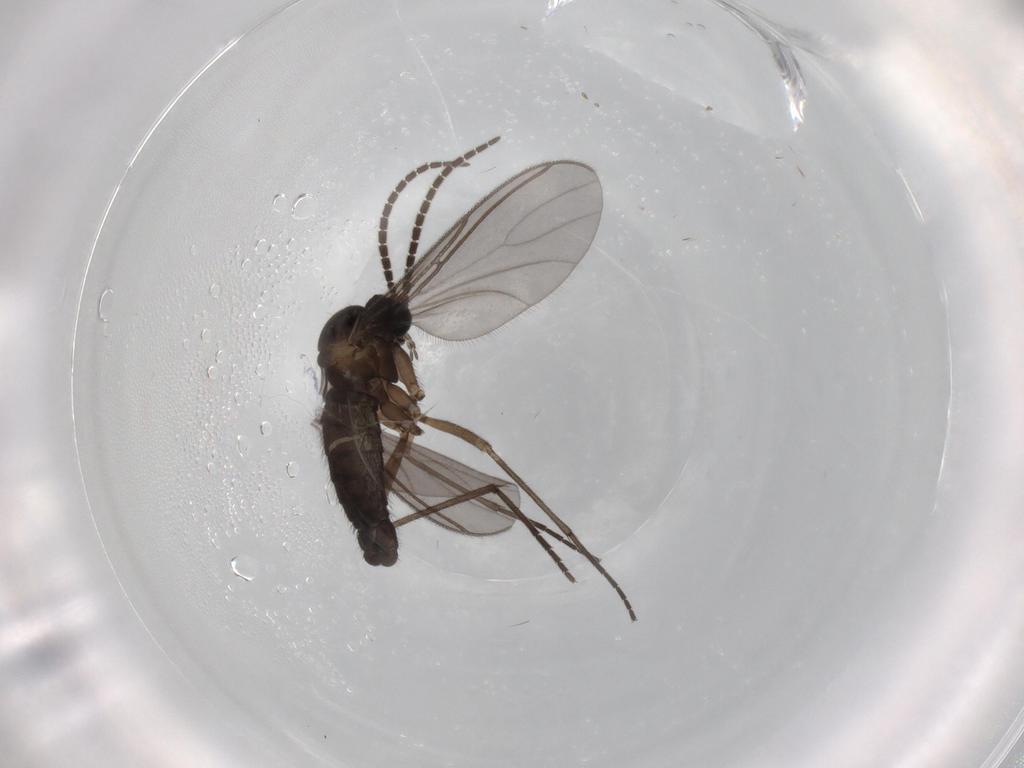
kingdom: Animalia
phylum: Arthropoda
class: Insecta
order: Diptera
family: Sciaridae
